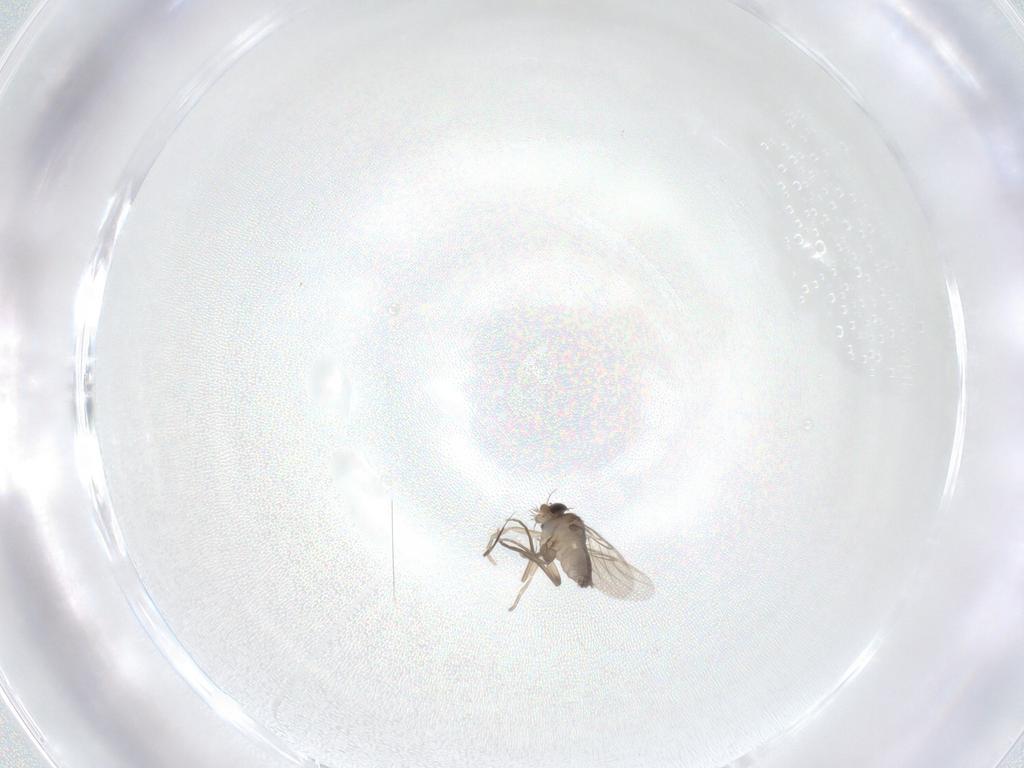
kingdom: Animalia
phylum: Arthropoda
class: Insecta
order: Diptera
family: Phoridae
